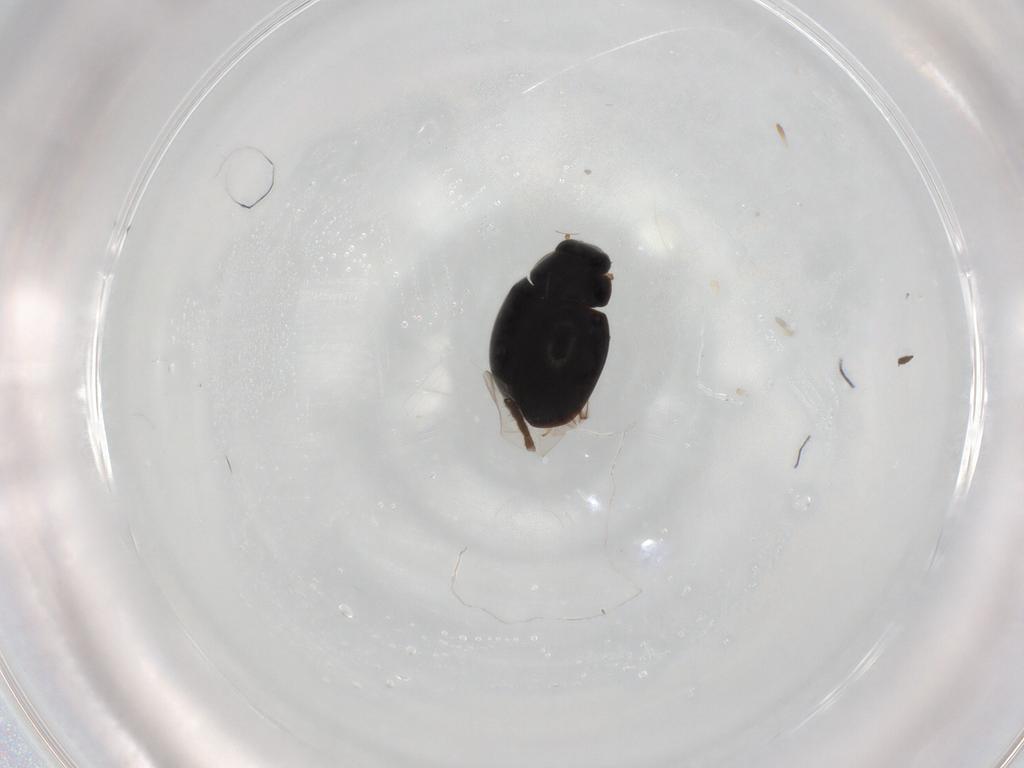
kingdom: Animalia
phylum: Arthropoda
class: Insecta
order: Coleoptera
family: Coccinellidae
